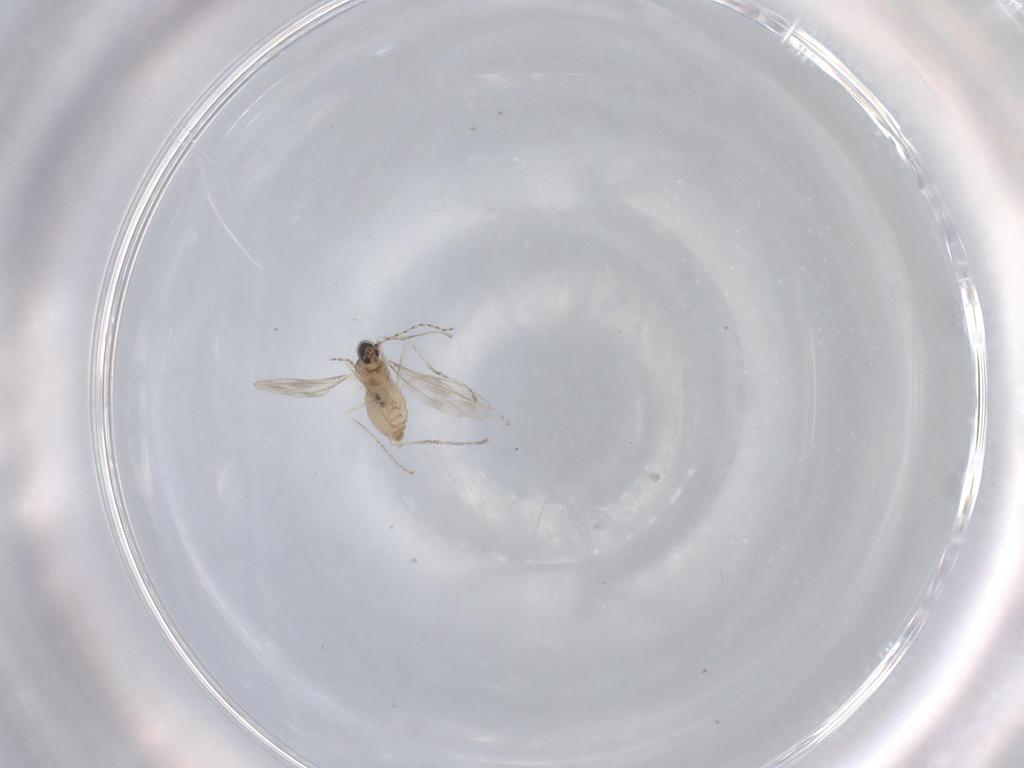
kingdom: Animalia
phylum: Arthropoda
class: Insecta
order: Diptera
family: Cecidomyiidae
